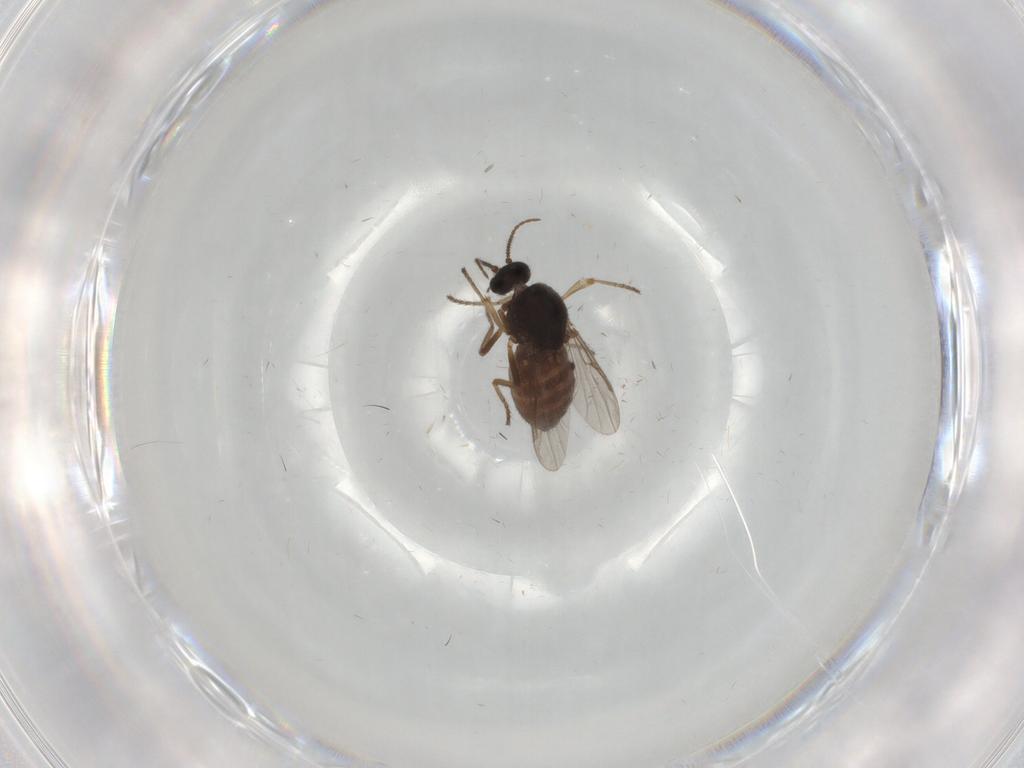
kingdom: Animalia
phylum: Arthropoda
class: Insecta
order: Diptera
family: Ceratopogonidae
